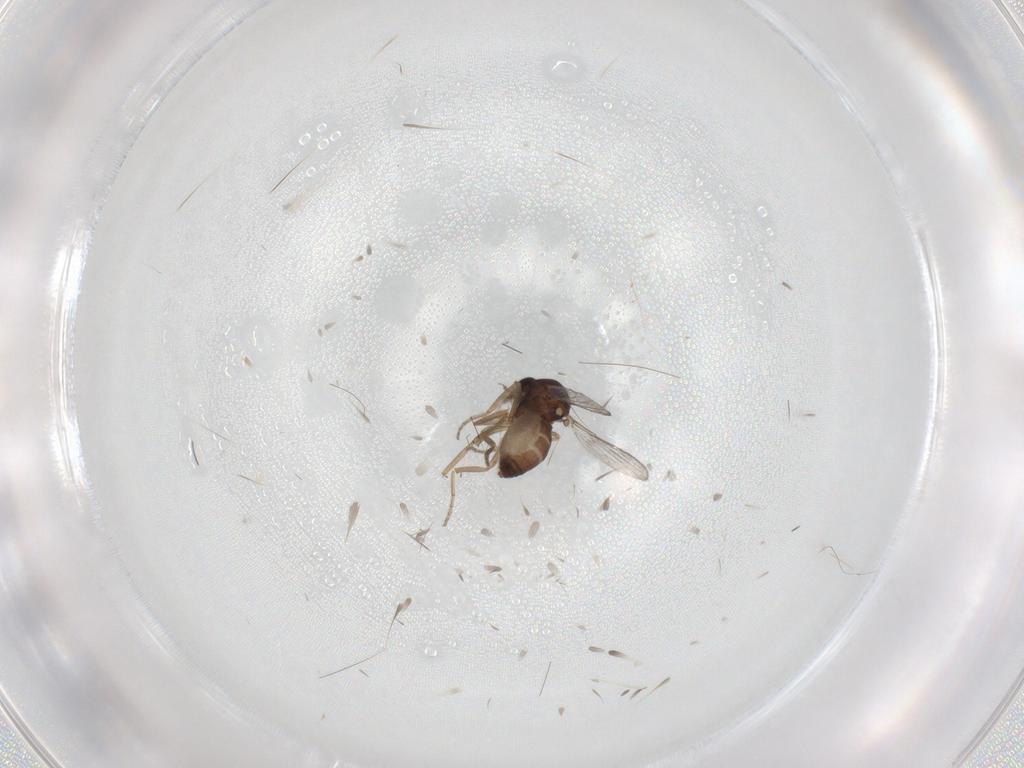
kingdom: Animalia
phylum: Arthropoda
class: Insecta
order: Diptera
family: Ceratopogonidae
